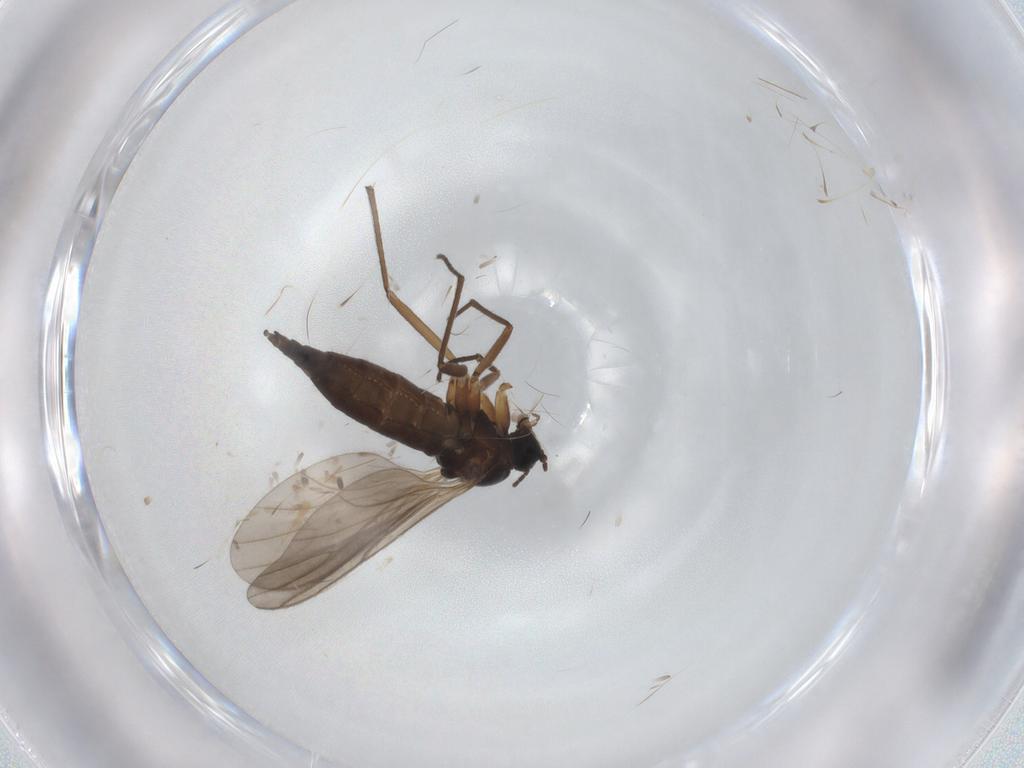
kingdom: Animalia
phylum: Arthropoda
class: Insecta
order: Diptera
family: Sciaridae
